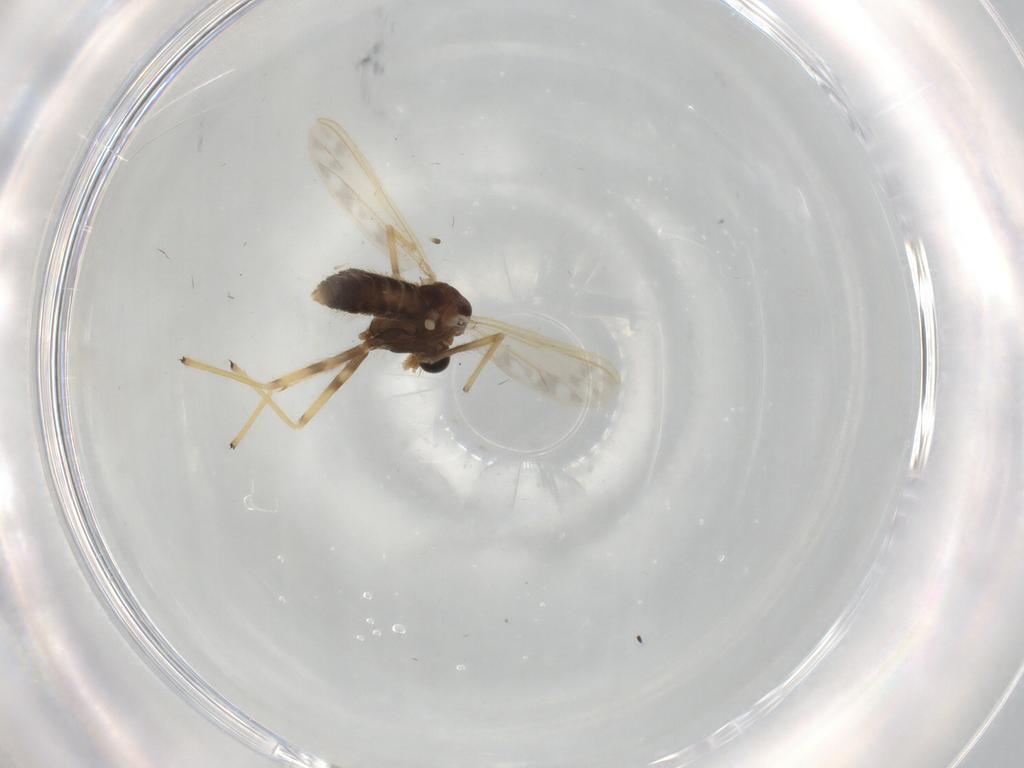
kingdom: Animalia
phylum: Arthropoda
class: Insecta
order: Diptera
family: Chironomidae
